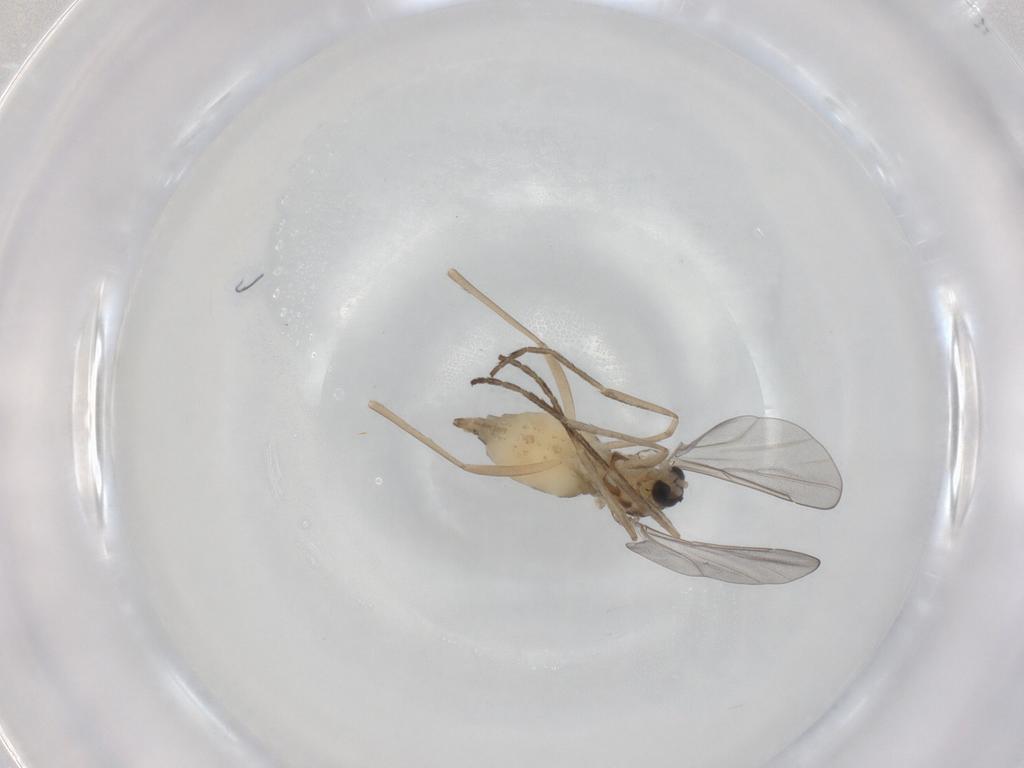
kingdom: Animalia
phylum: Arthropoda
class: Insecta
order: Diptera
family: Cecidomyiidae
